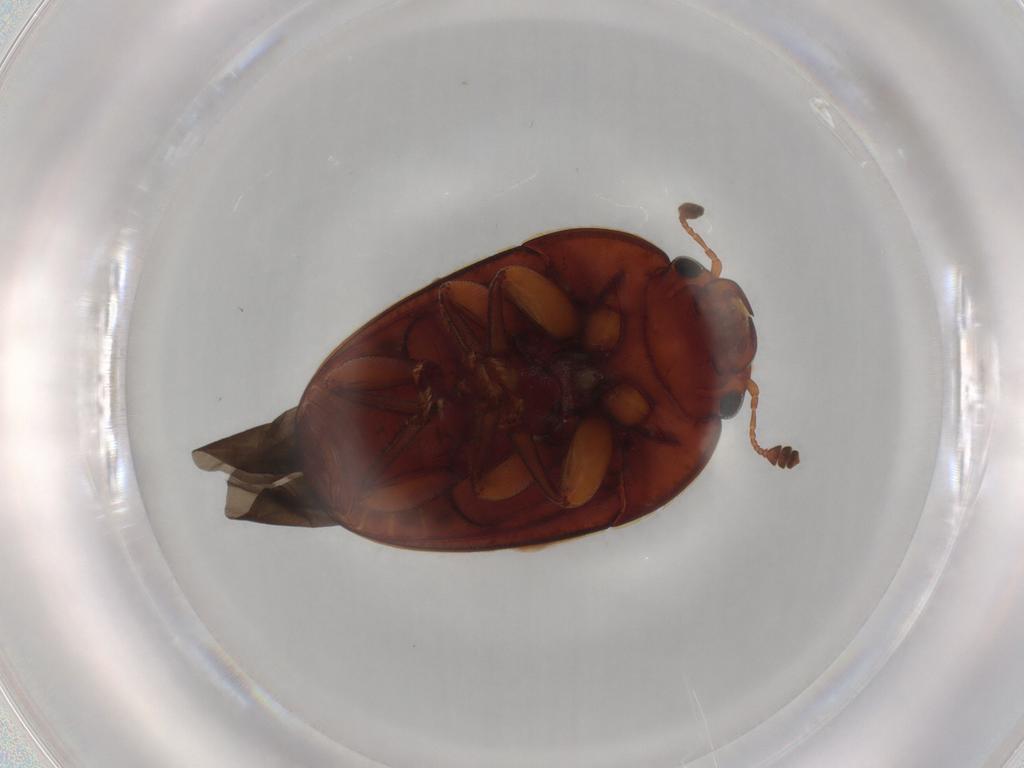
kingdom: Animalia
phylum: Arthropoda
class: Insecta
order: Coleoptera
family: Nitidulidae
